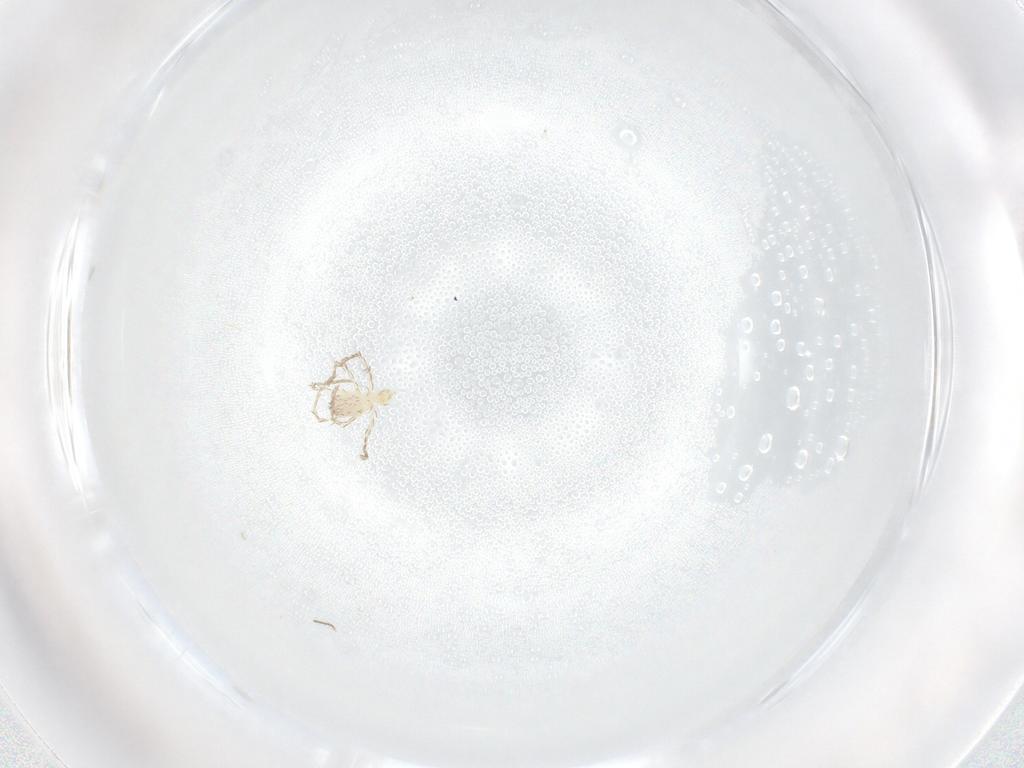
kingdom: Animalia
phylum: Arthropoda
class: Arachnida
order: Trombidiformes
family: Erythraeidae
